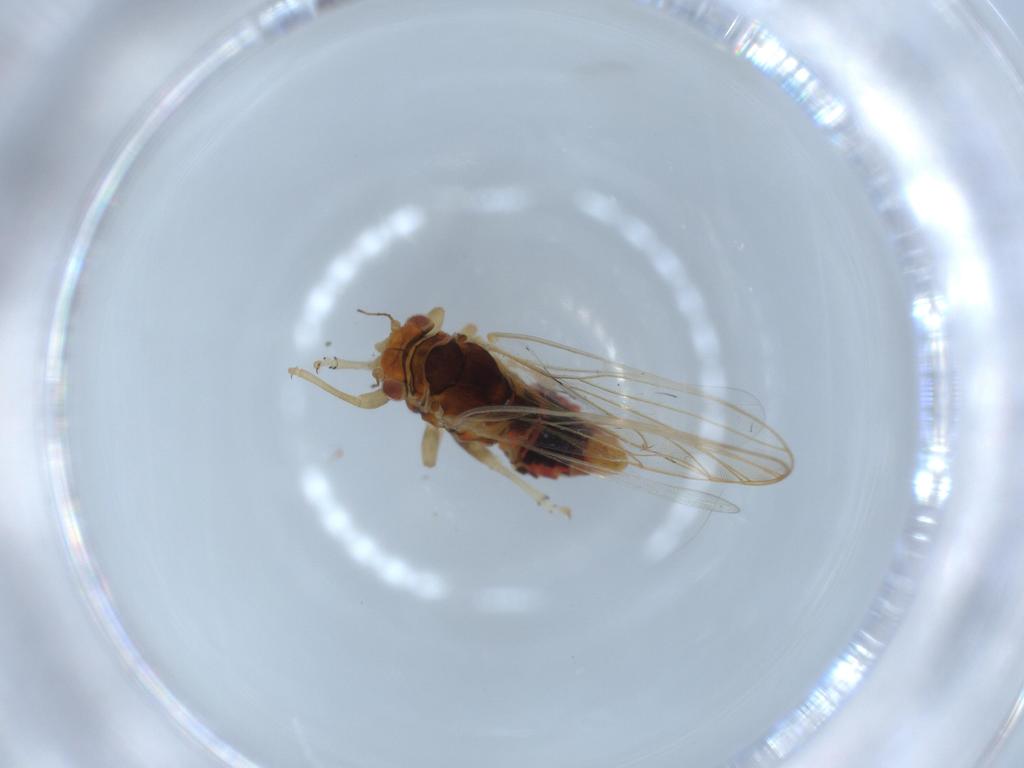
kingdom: Animalia
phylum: Arthropoda
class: Insecta
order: Hemiptera
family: Aleyrodidae
